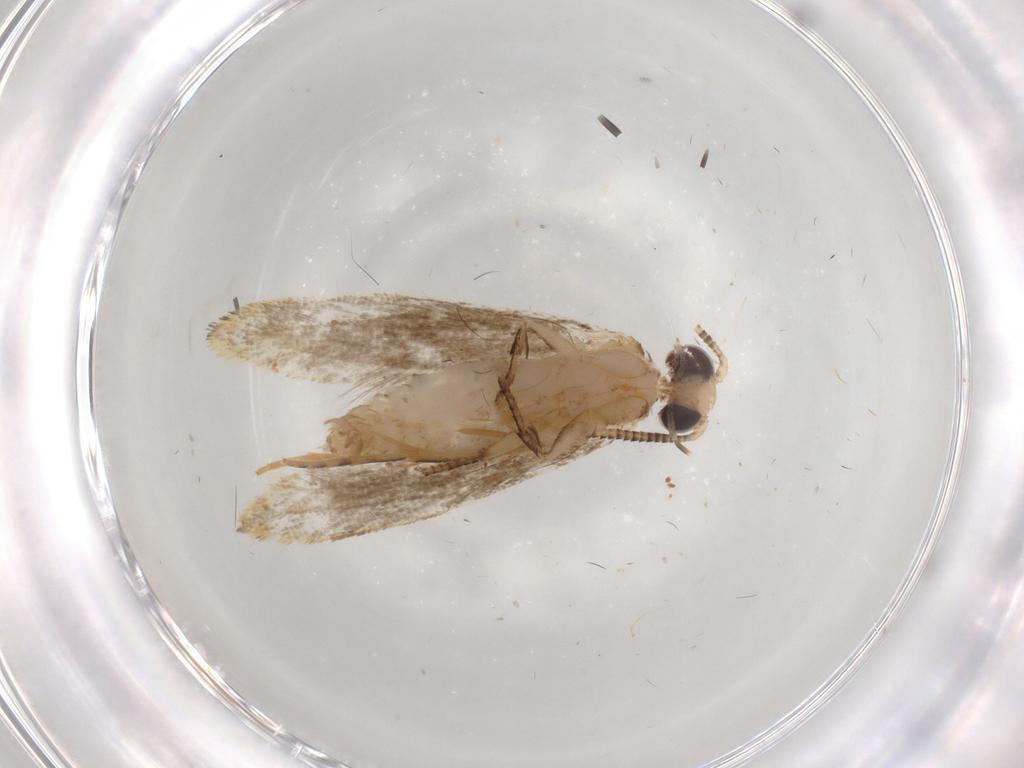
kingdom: Animalia
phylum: Arthropoda
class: Insecta
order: Lepidoptera
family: Tineidae
